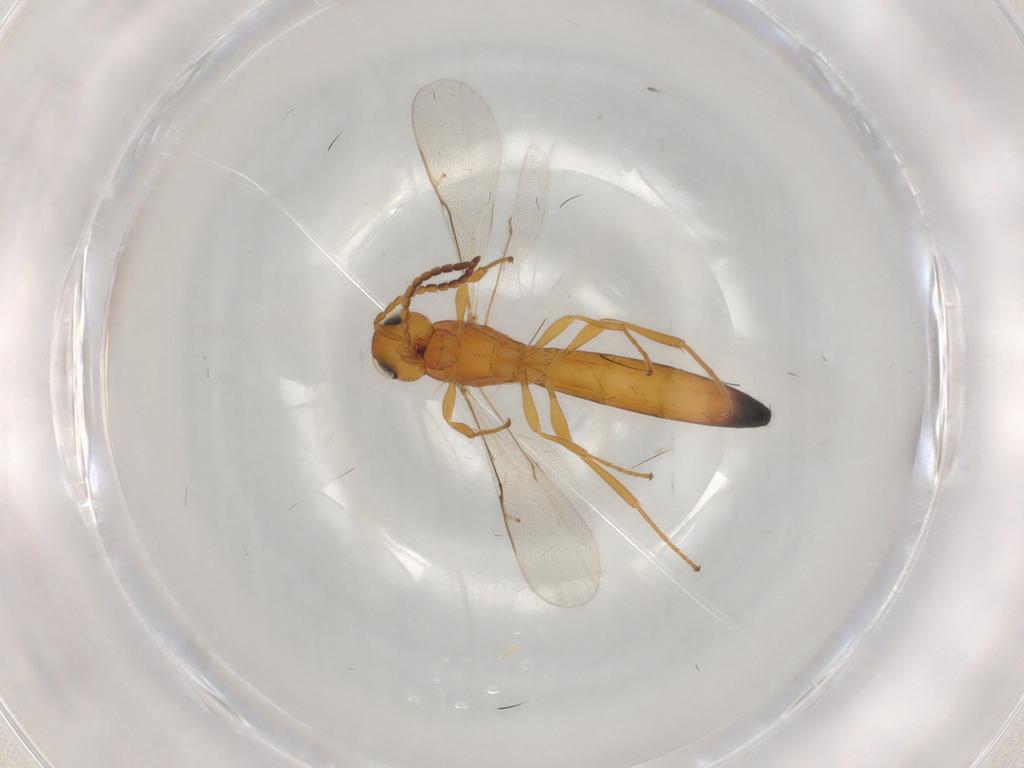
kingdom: Animalia
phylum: Arthropoda
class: Insecta
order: Hymenoptera
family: Scelionidae
